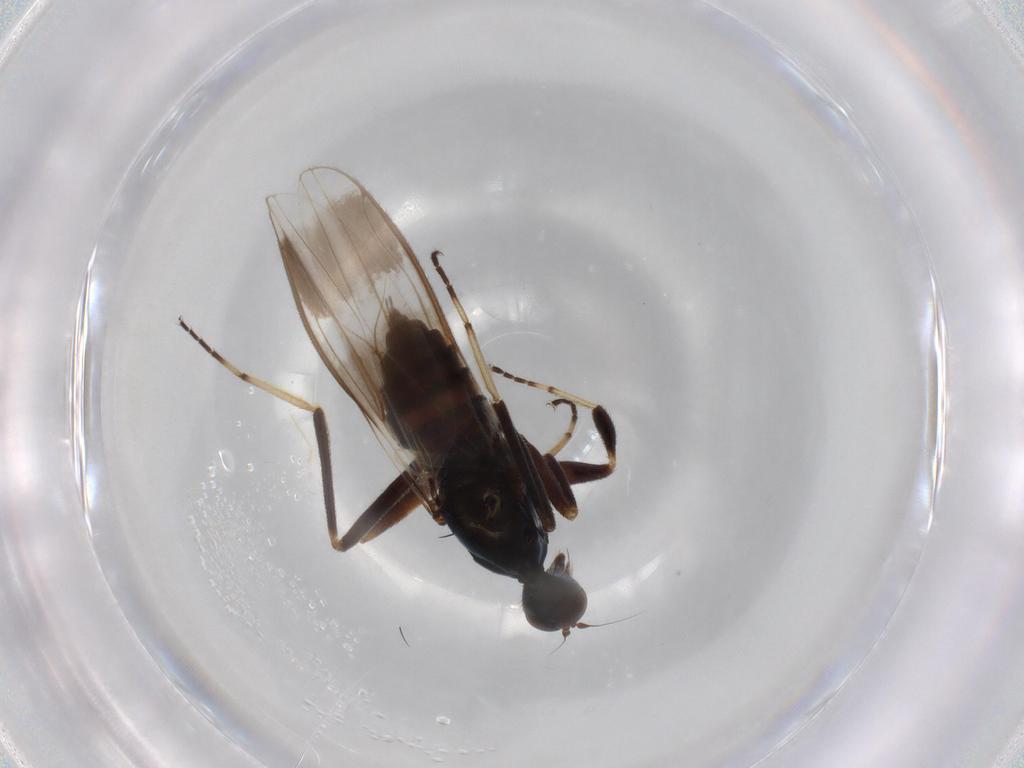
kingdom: Animalia
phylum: Arthropoda
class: Insecta
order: Diptera
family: Hybotidae
